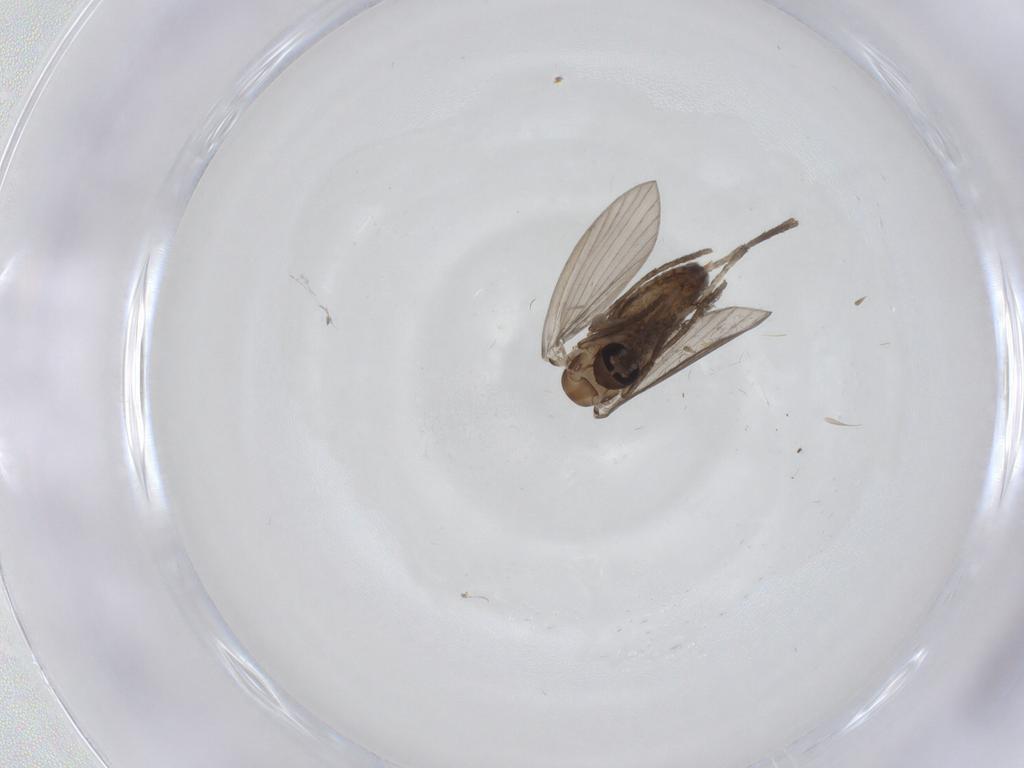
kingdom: Animalia
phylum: Arthropoda
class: Insecta
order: Diptera
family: Psychodidae
